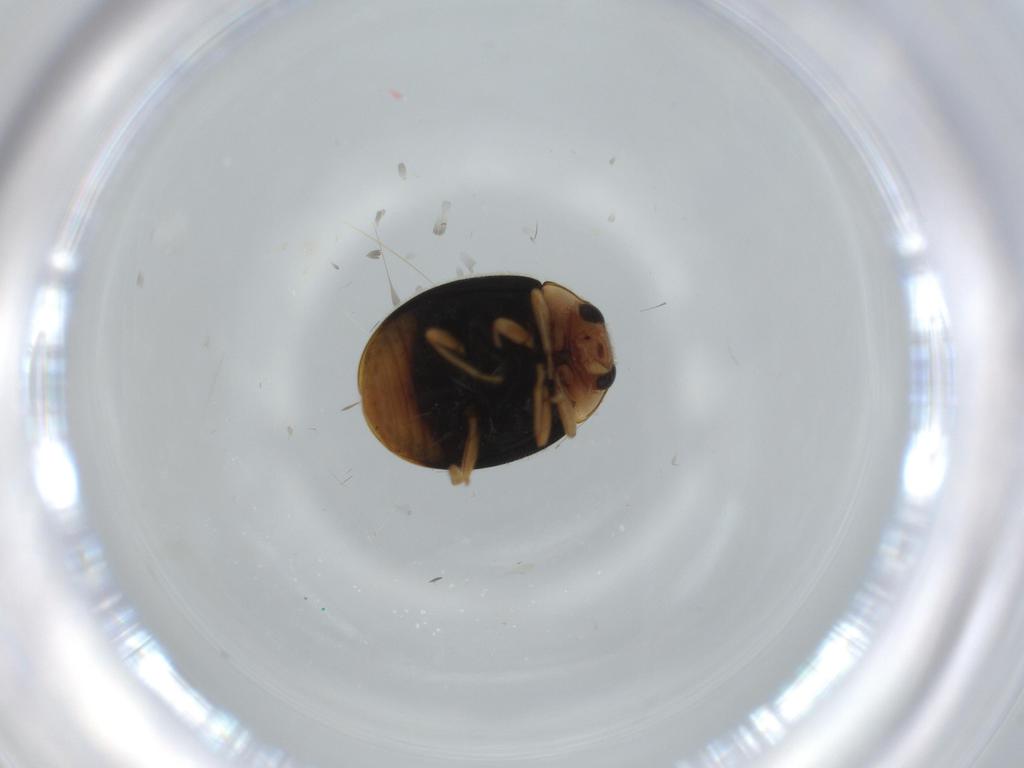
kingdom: Animalia
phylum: Arthropoda
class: Insecta
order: Coleoptera
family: Coccinellidae
